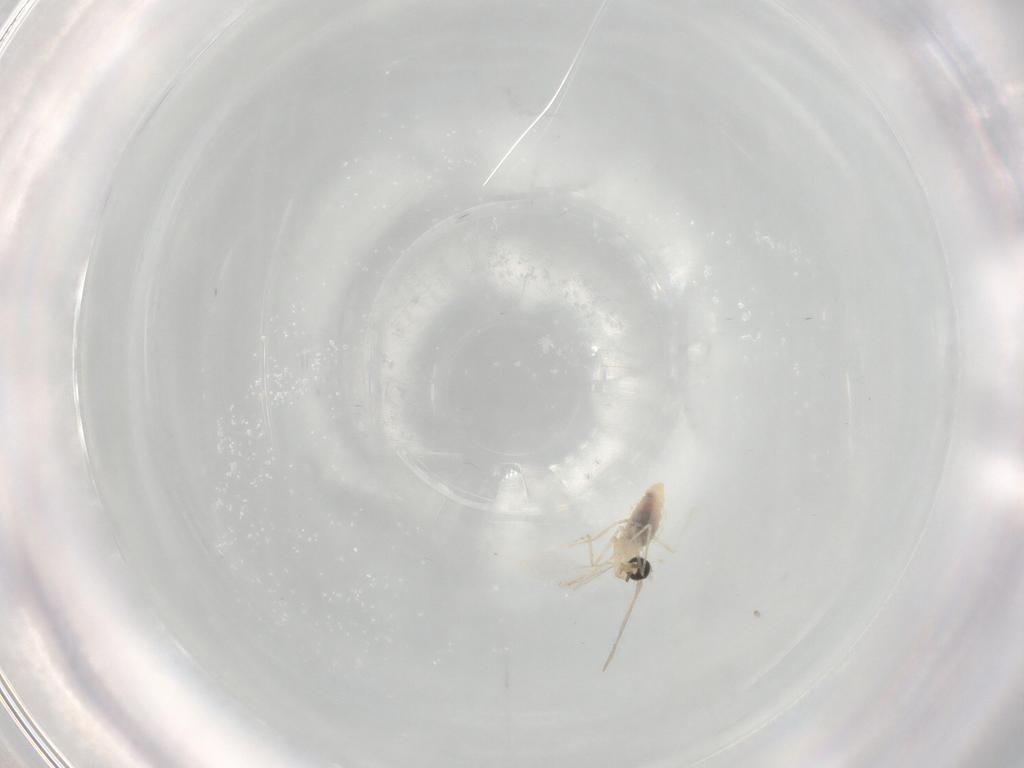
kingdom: Animalia
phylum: Arthropoda
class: Insecta
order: Diptera
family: Cecidomyiidae
